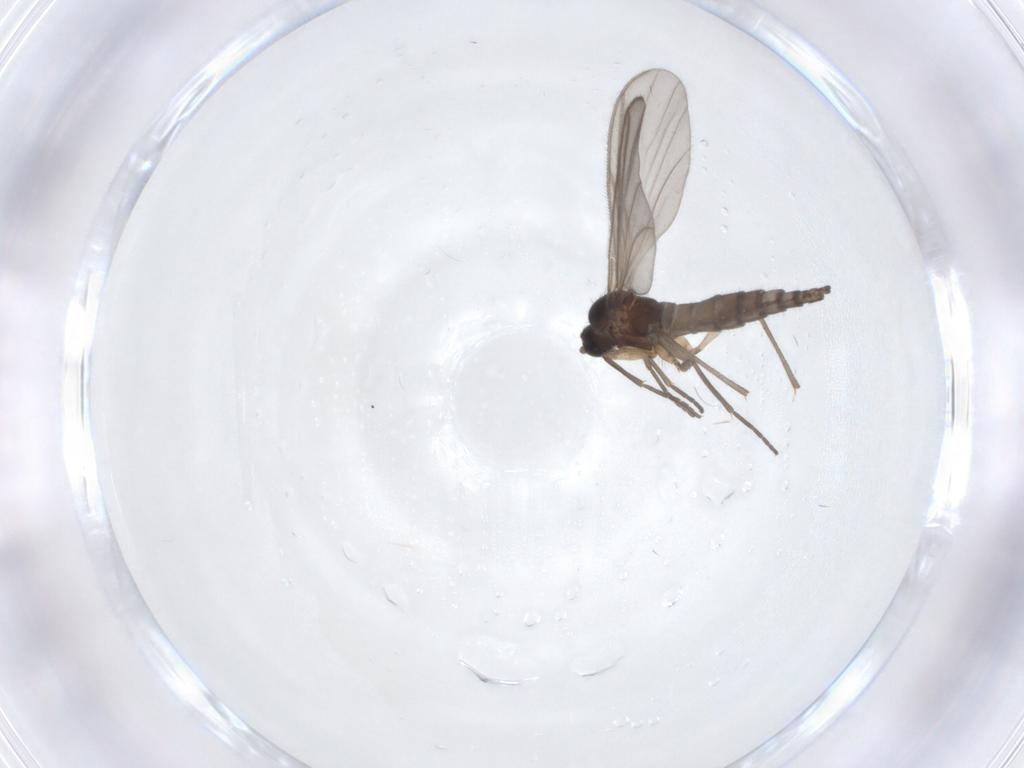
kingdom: Animalia
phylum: Arthropoda
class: Insecta
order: Diptera
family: Sciaridae
